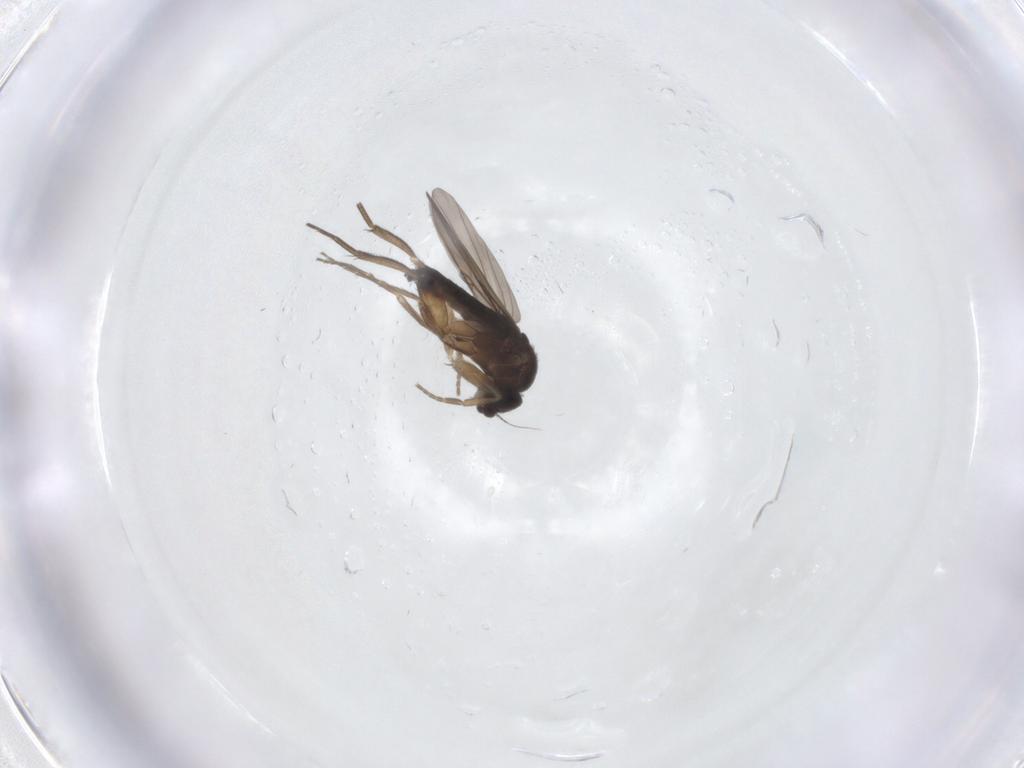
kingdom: Animalia
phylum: Arthropoda
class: Insecta
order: Diptera
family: Phoridae
